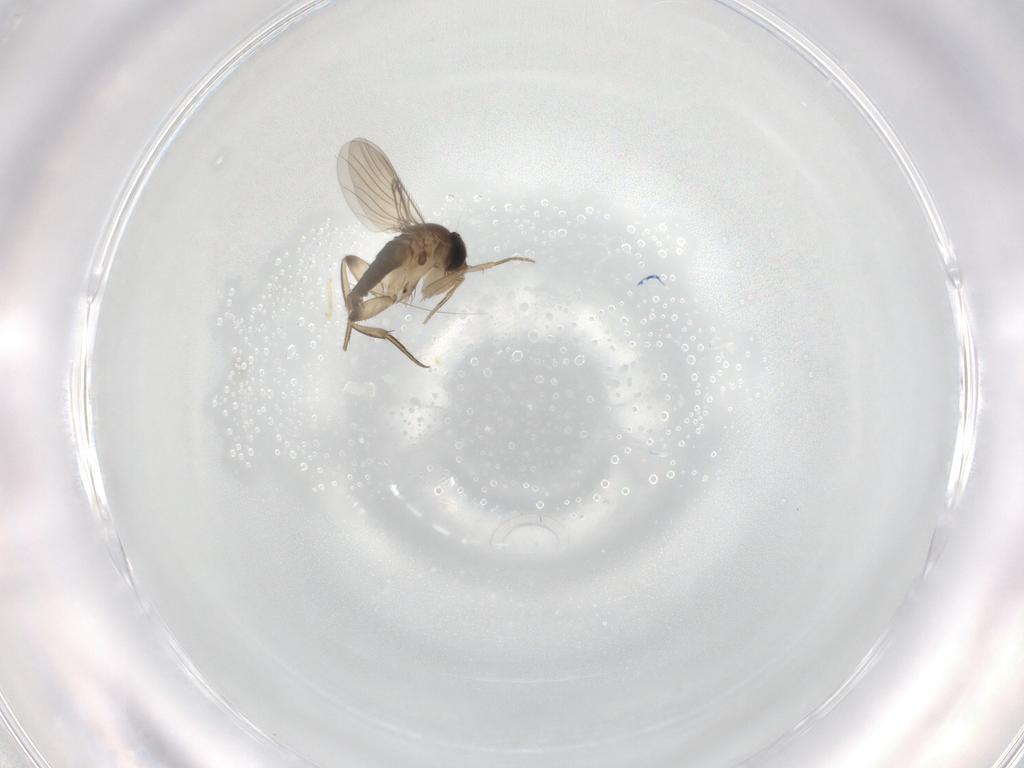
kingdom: Animalia
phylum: Arthropoda
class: Insecta
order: Diptera
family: Phoridae
